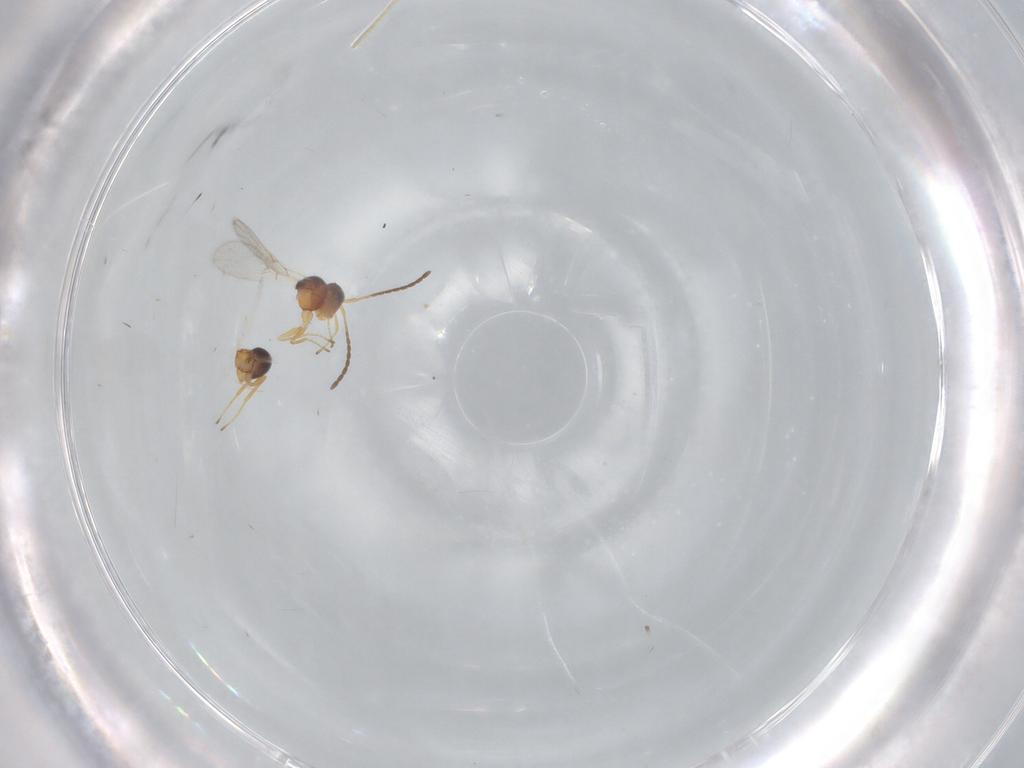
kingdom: Animalia
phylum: Arthropoda
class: Insecta
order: Hymenoptera
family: Figitidae
